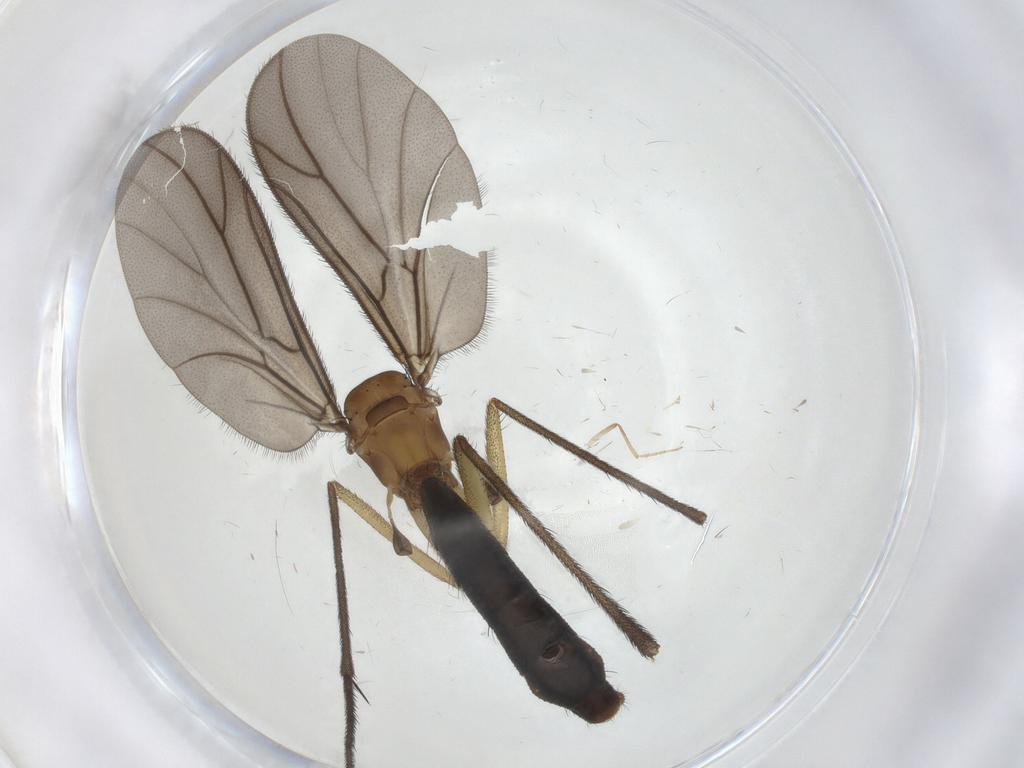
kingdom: Animalia
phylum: Arthropoda
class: Insecta
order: Diptera
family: Ditomyiidae
